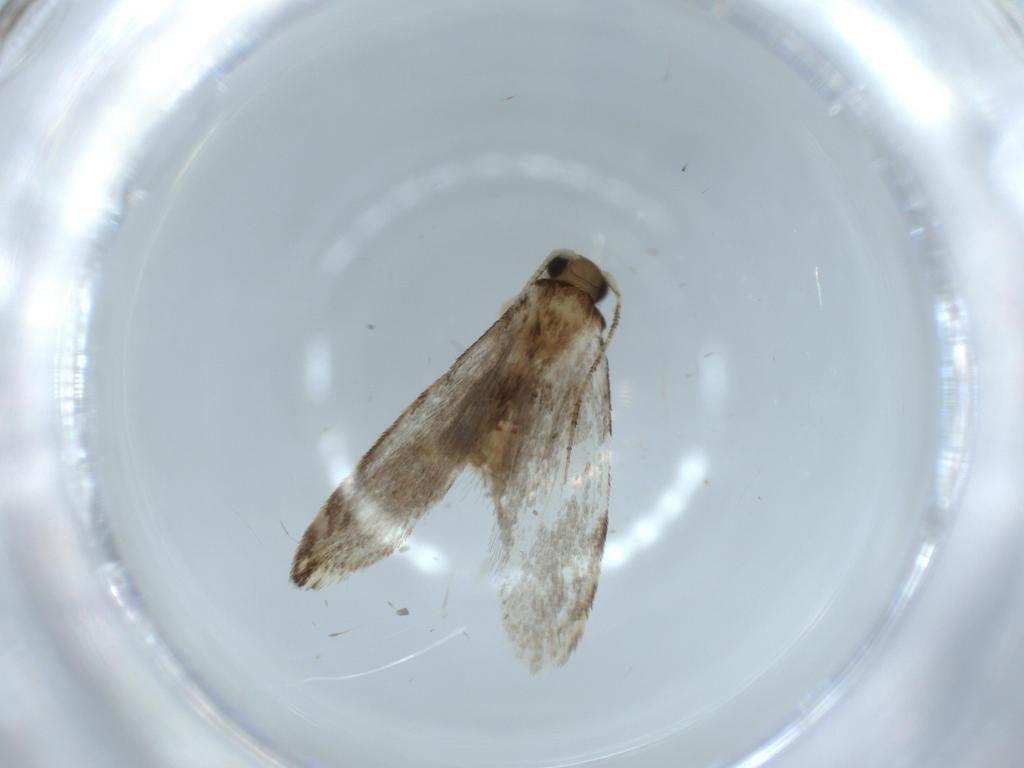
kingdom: Animalia
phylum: Arthropoda
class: Insecta
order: Lepidoptera
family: Tineidae
